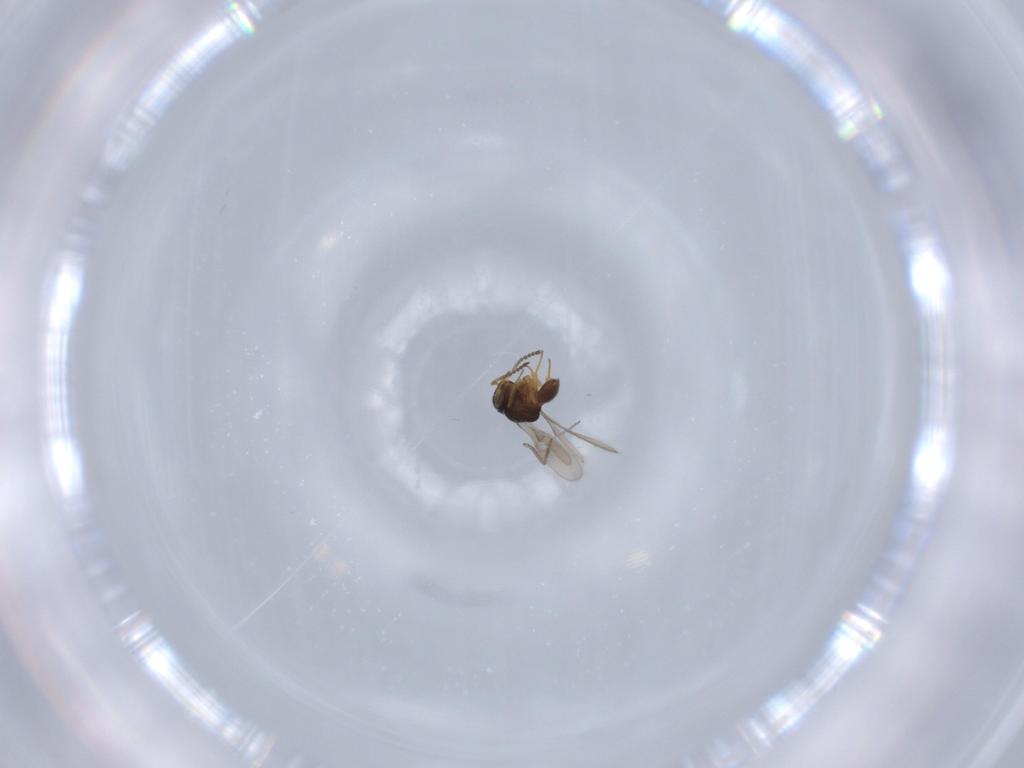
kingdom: Animalia
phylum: Arthropoda
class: Insecta
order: Hymenoptera
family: Scelionidae
